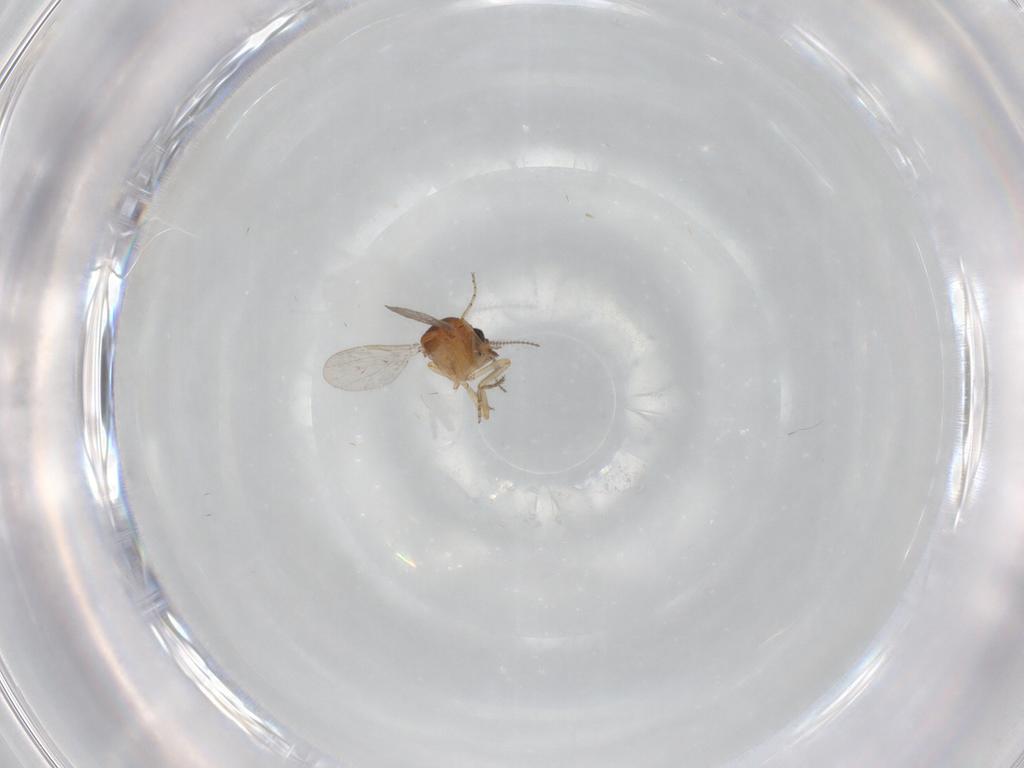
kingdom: Animalia
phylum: Arthropoda
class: Insecta
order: Diptera
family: Ceratopogonidae
